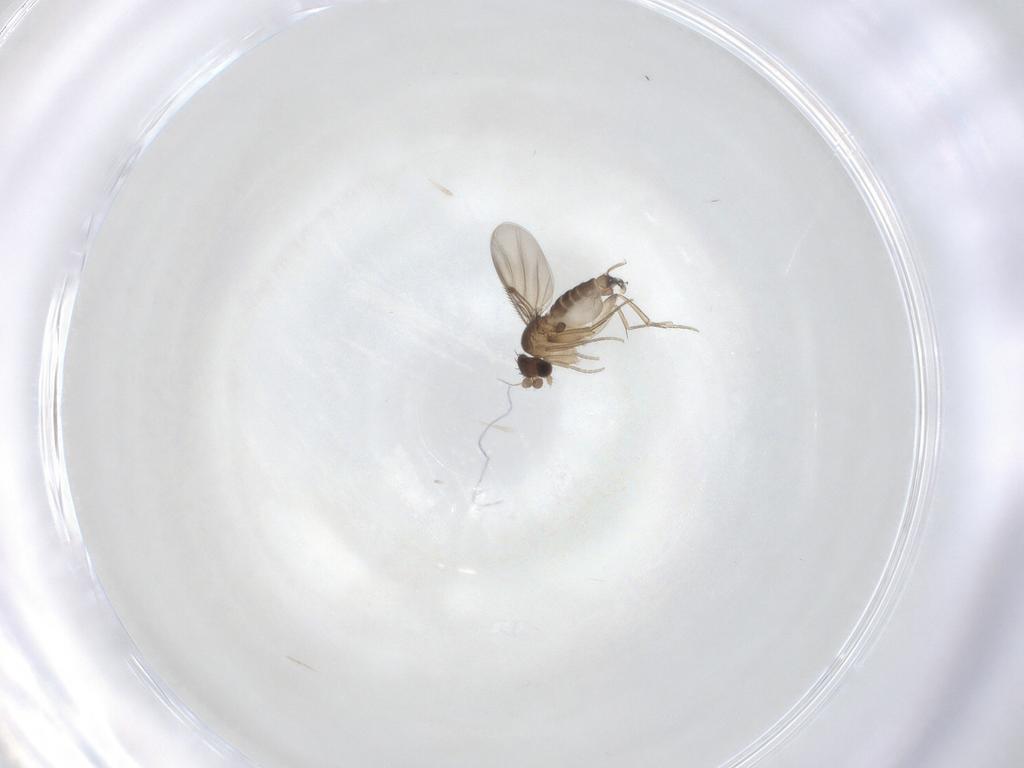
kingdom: Animalia
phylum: Arthropoda
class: Insecta
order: Diptera
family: Phoridae
